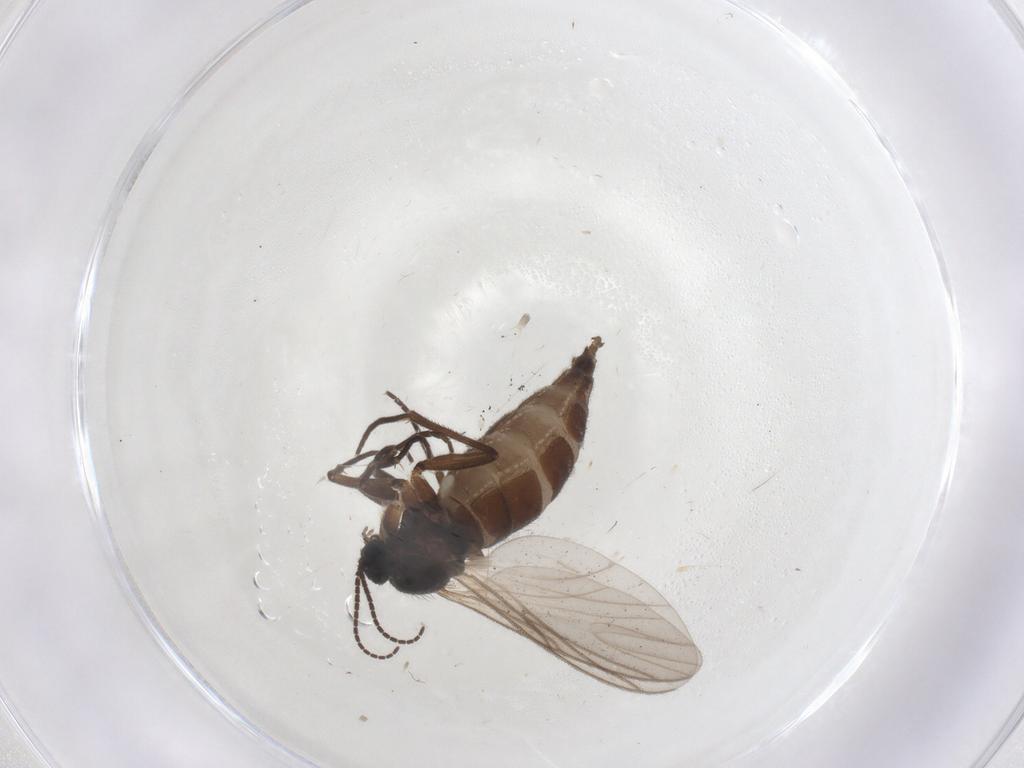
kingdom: Animalia
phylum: Arthropoda
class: Insecta
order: Diptera
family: Sciaridae
